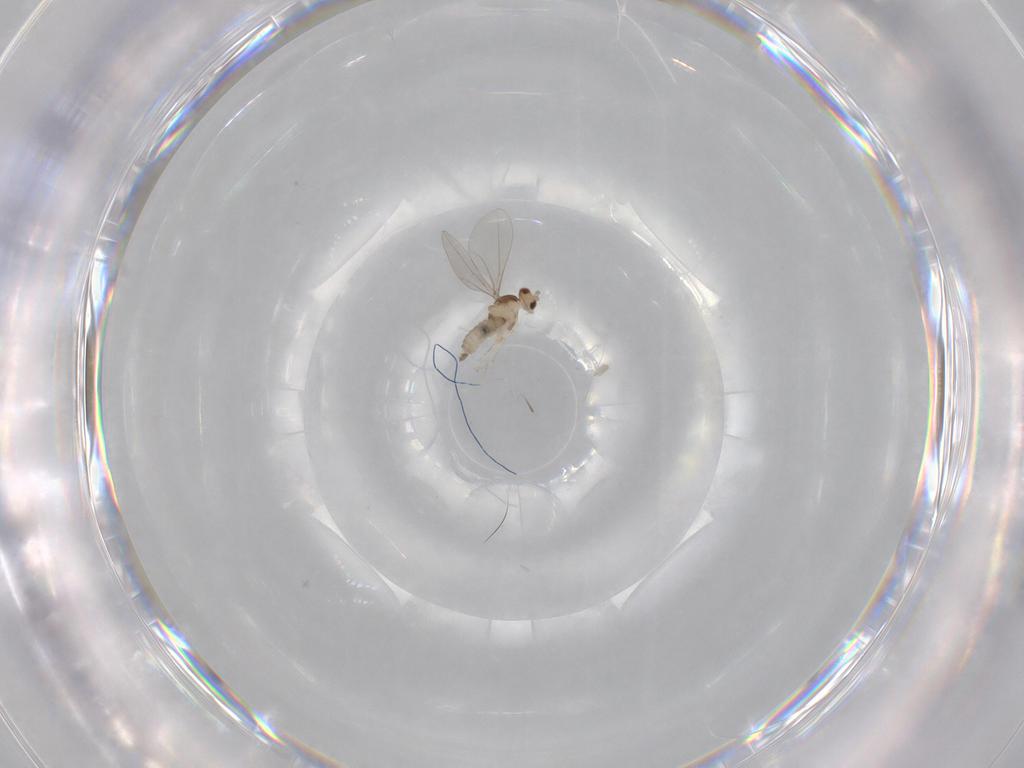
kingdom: Animalia
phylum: Arthropoda
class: Insecta
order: Diptera
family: Cecidomyiidae
